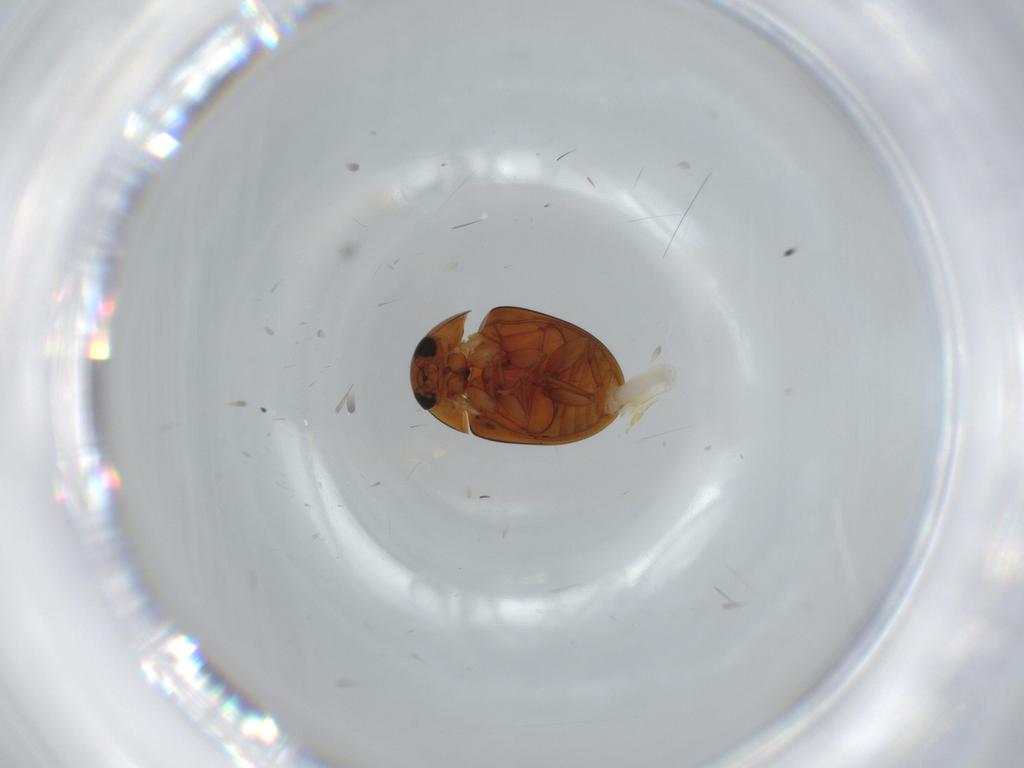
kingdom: Animalia
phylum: Arthropoda
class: Insecta
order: Coleoptera
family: Phalacridae
